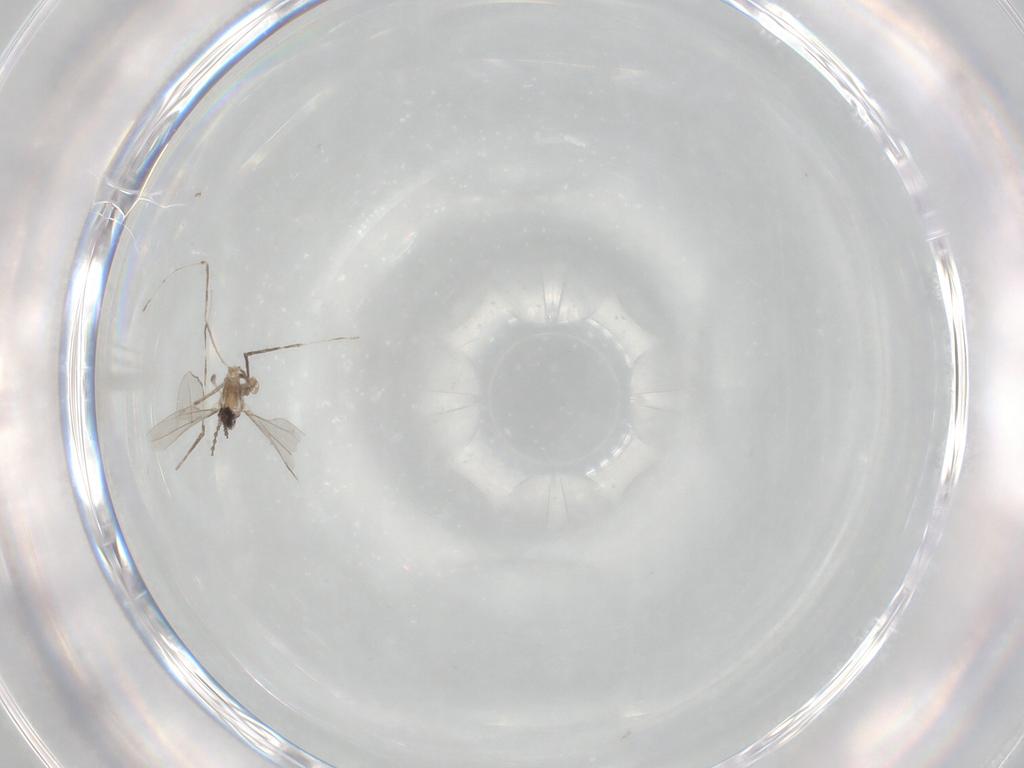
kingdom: Animalia
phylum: Arthropoda
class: Insecta
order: Diptera
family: Cecidomyiidae
